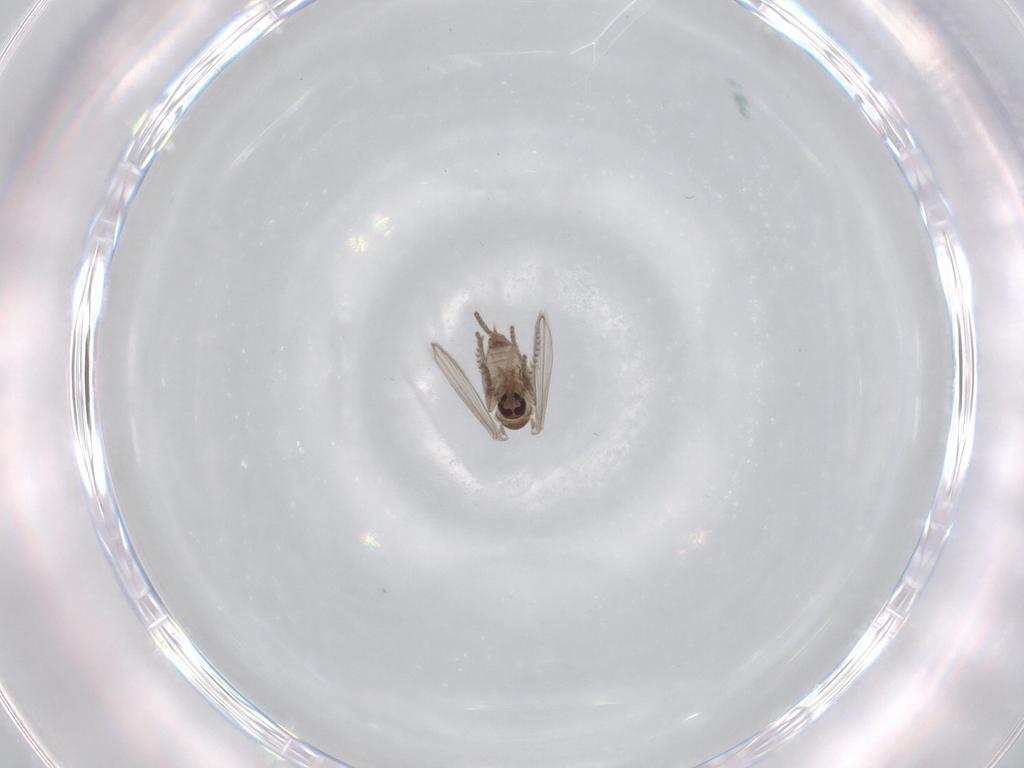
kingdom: Animalia
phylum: Arthropoda
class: Insecta
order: Diptera
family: Psychodidae
